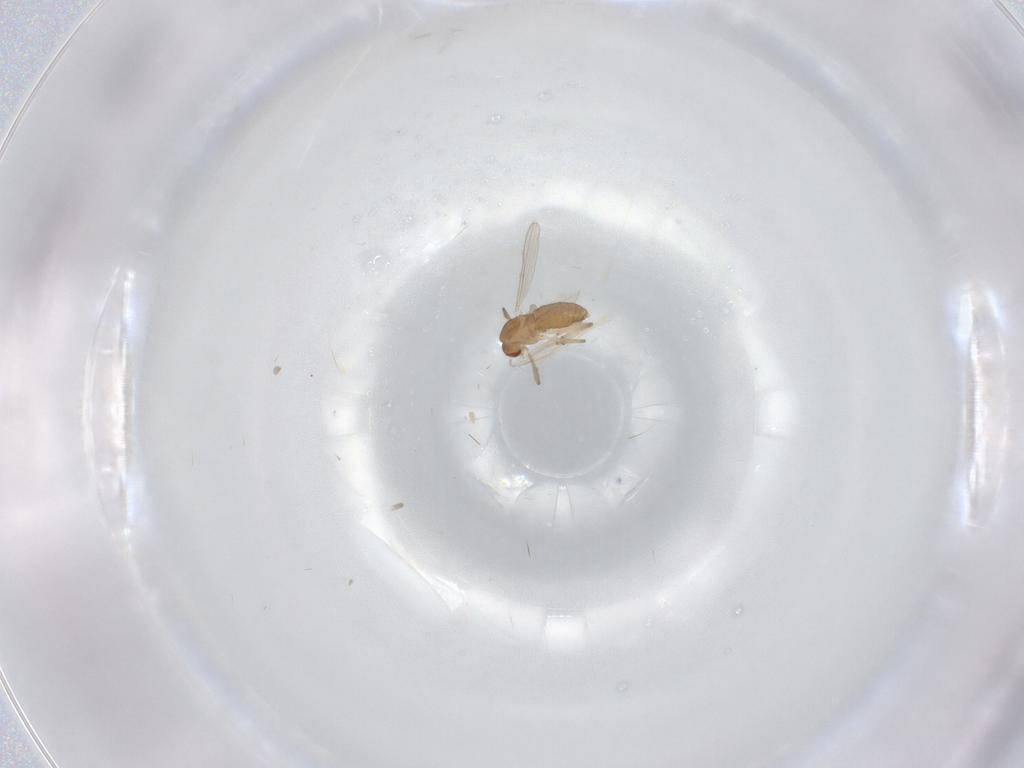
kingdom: Animalia
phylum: Arthropoda
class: Insecta
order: Diptera
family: Chironomidae
